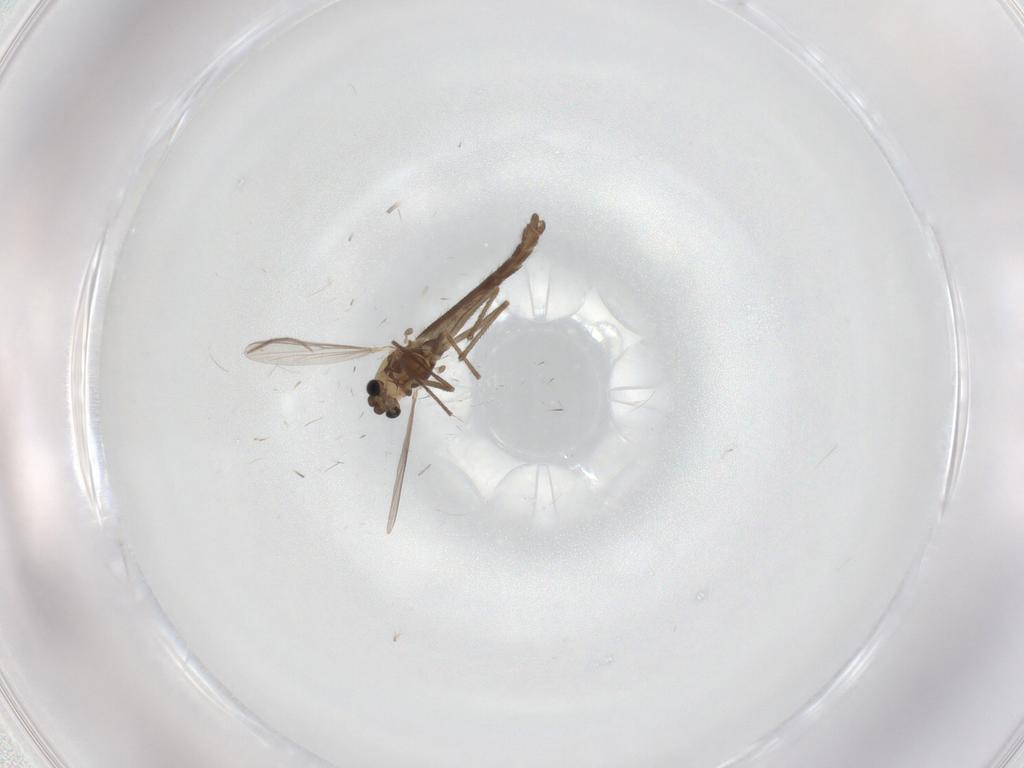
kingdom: Animalia
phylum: Arthropoda
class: Insecta
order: Diptera
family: Chironomidae
